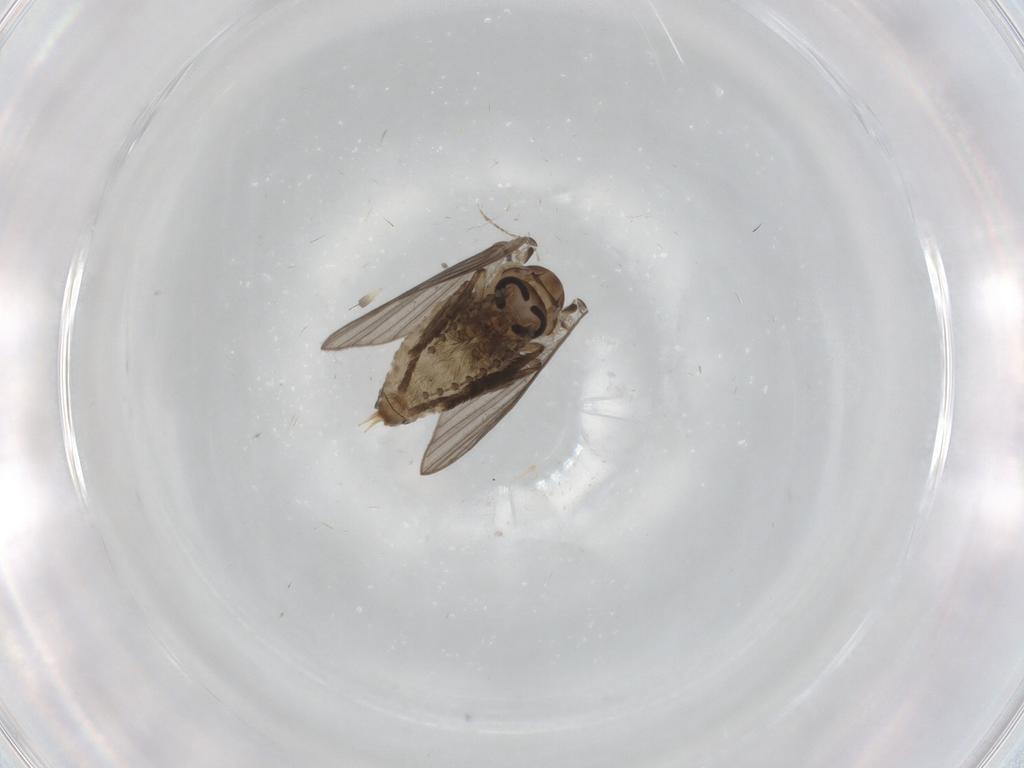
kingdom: Animalia
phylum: Arthropoda
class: Insecta
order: Diptera
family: Psychodidae
